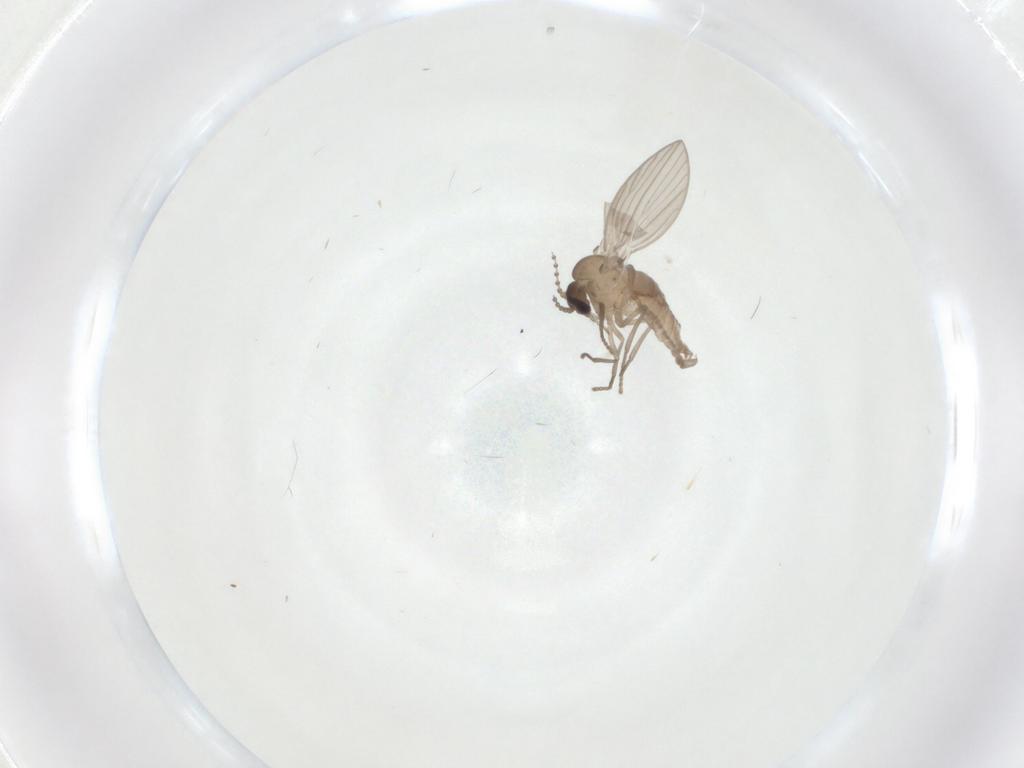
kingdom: Animalia
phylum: Arthropoda
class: Insecta
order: Diptera
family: Psychodidae
